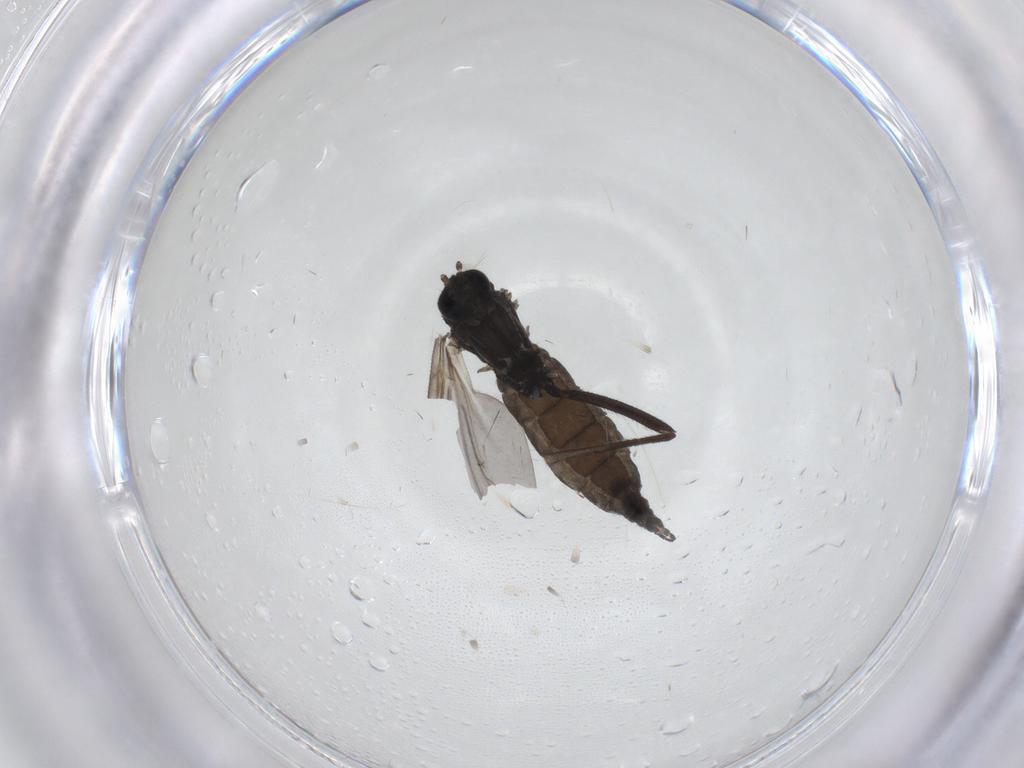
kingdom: Animalia
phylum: Arthropoda
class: Insecta
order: Diptera
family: Sciaridae
